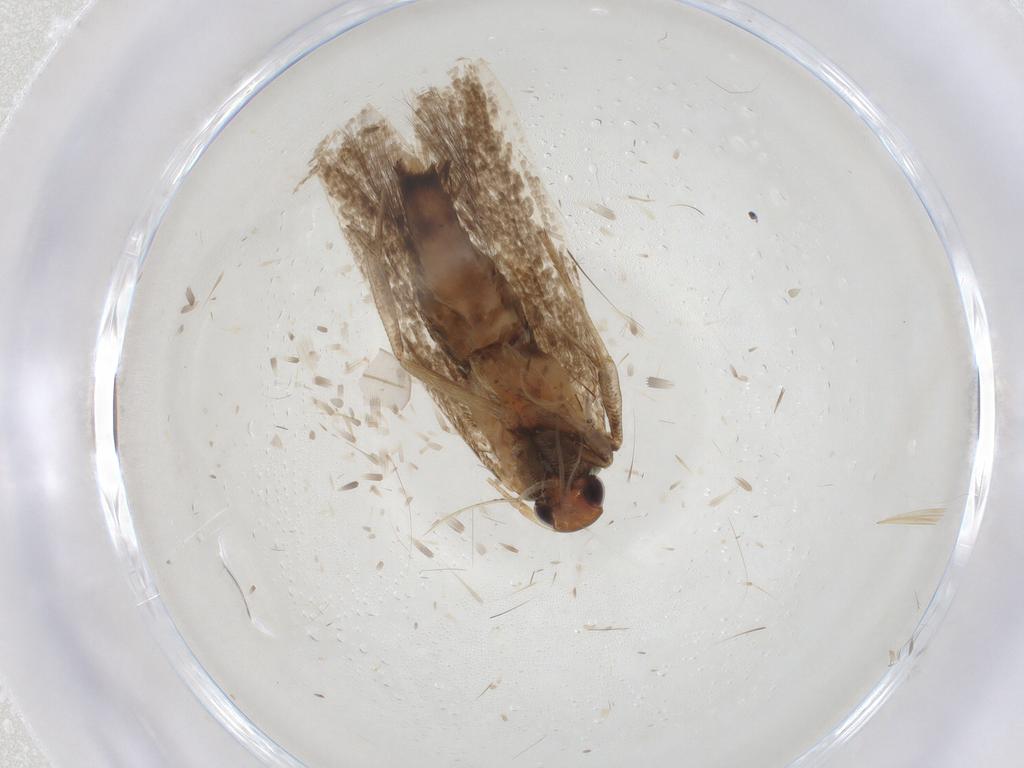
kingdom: Animalia
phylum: Arthropoda
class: Insecta
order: Lepidoptera
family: Cosmopterigidae
